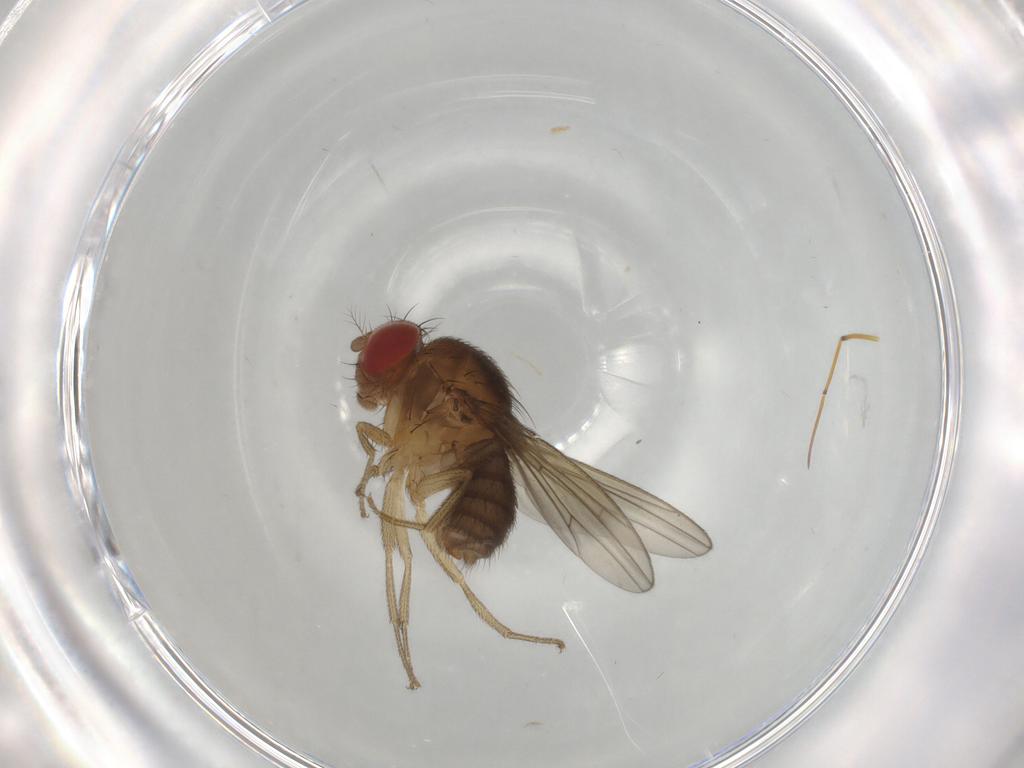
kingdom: Animalia
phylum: Arthropoda
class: Insecta
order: Diptera
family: Drosophilidae
